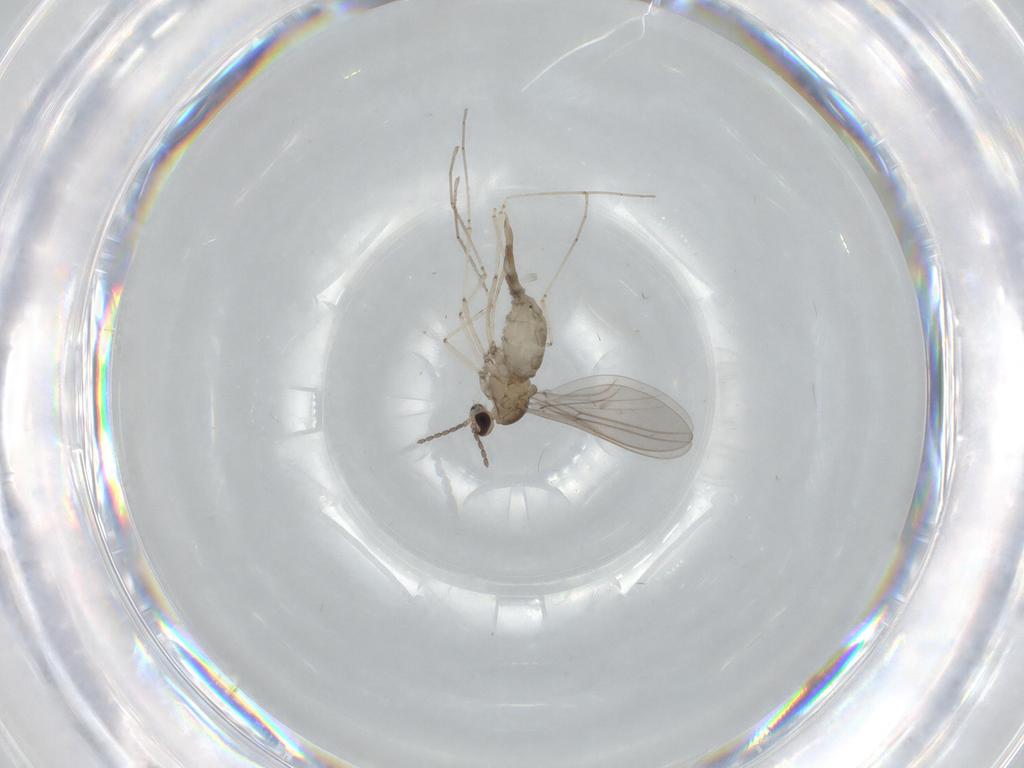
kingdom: Animalia
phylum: Arthropoda
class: Insecta
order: Diptera
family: Cecidomyiidae
